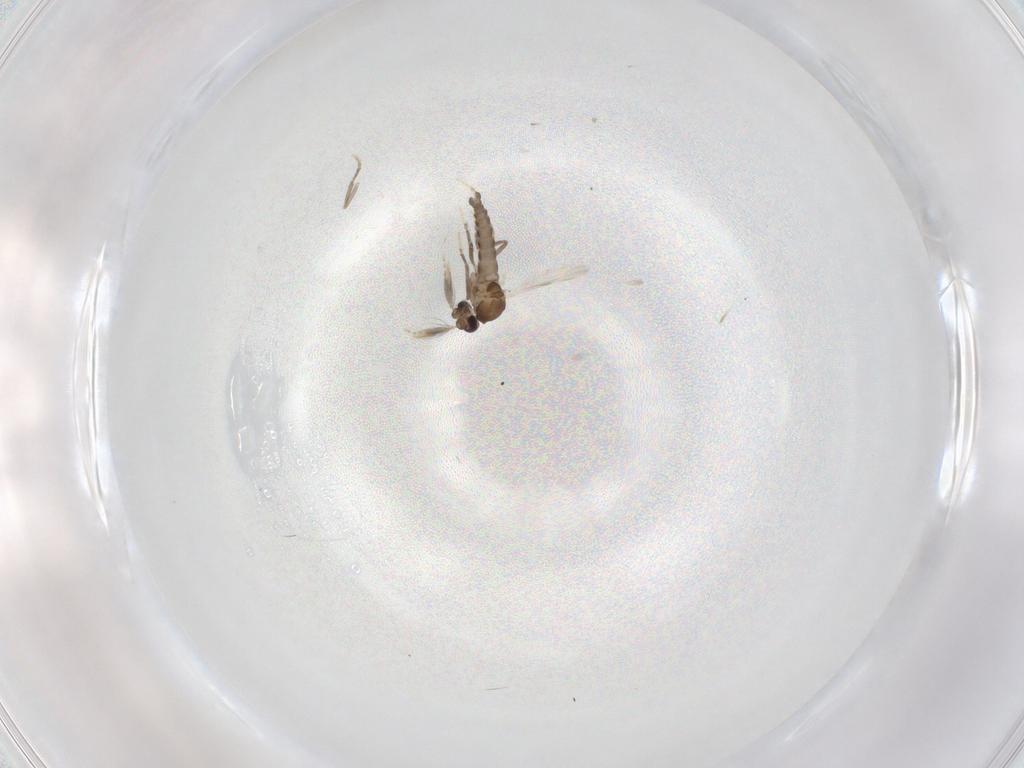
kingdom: Animalia
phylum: Arthropoda
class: Insecta
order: Diptera
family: Ceratopogonidae
